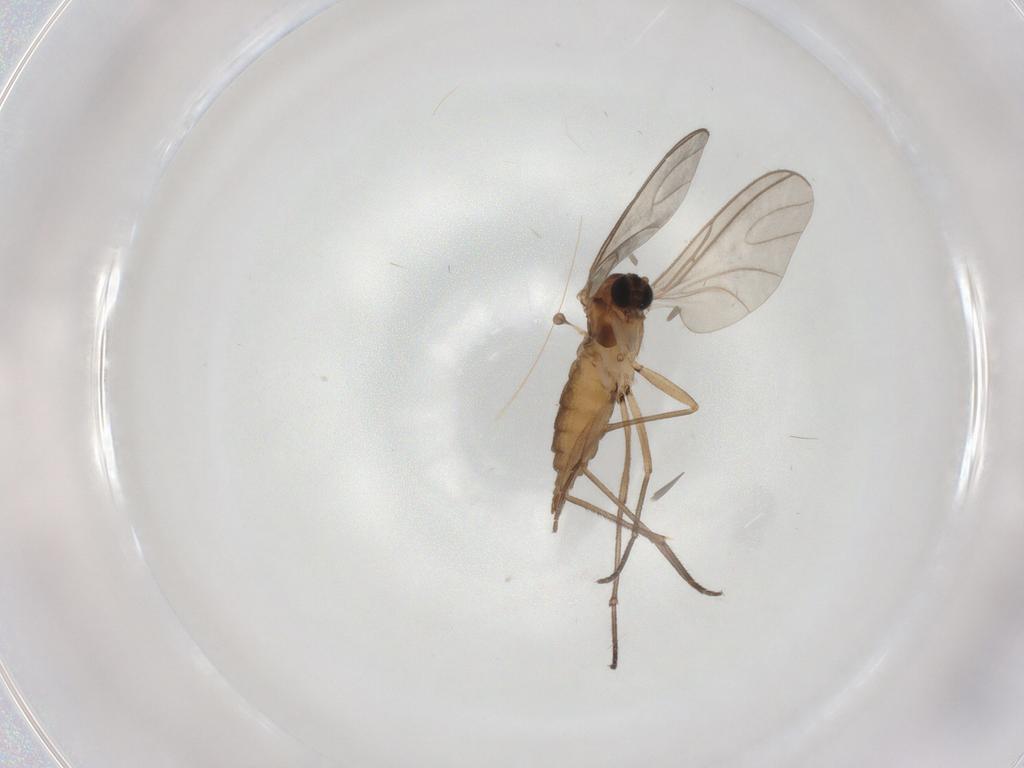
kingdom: Animalia
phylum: Arthropoda
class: Insecta
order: Diptera
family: Sciaridae
